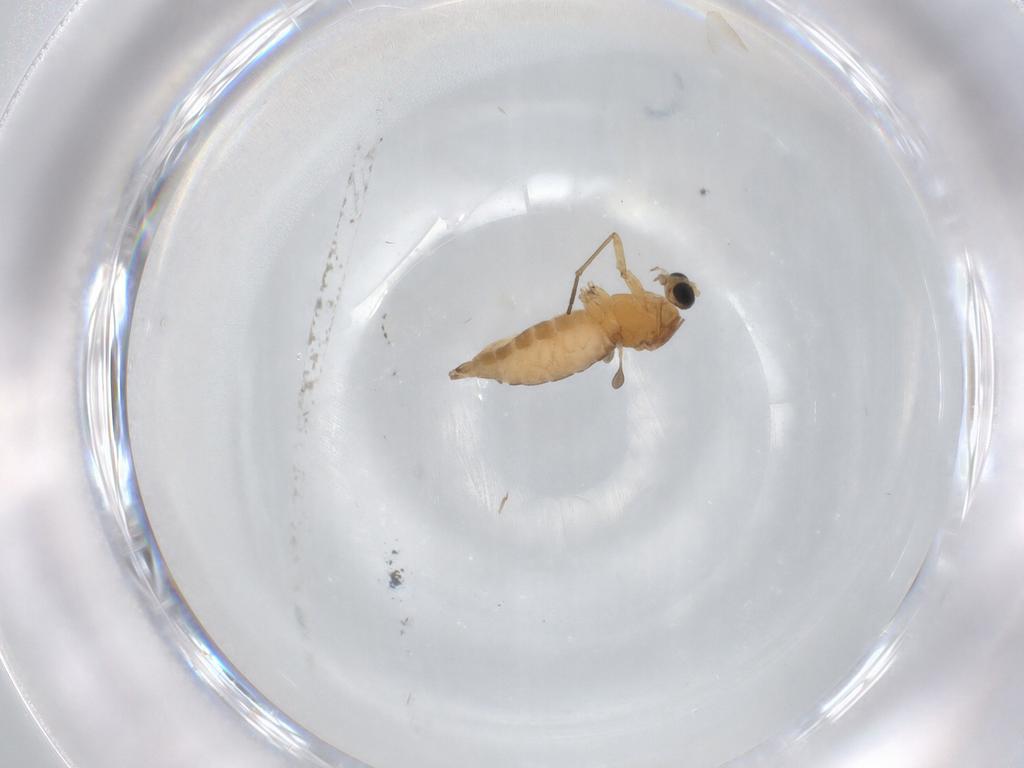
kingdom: Animalia
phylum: Arthropoda
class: Insecta
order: Diptera
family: Sciaridae
